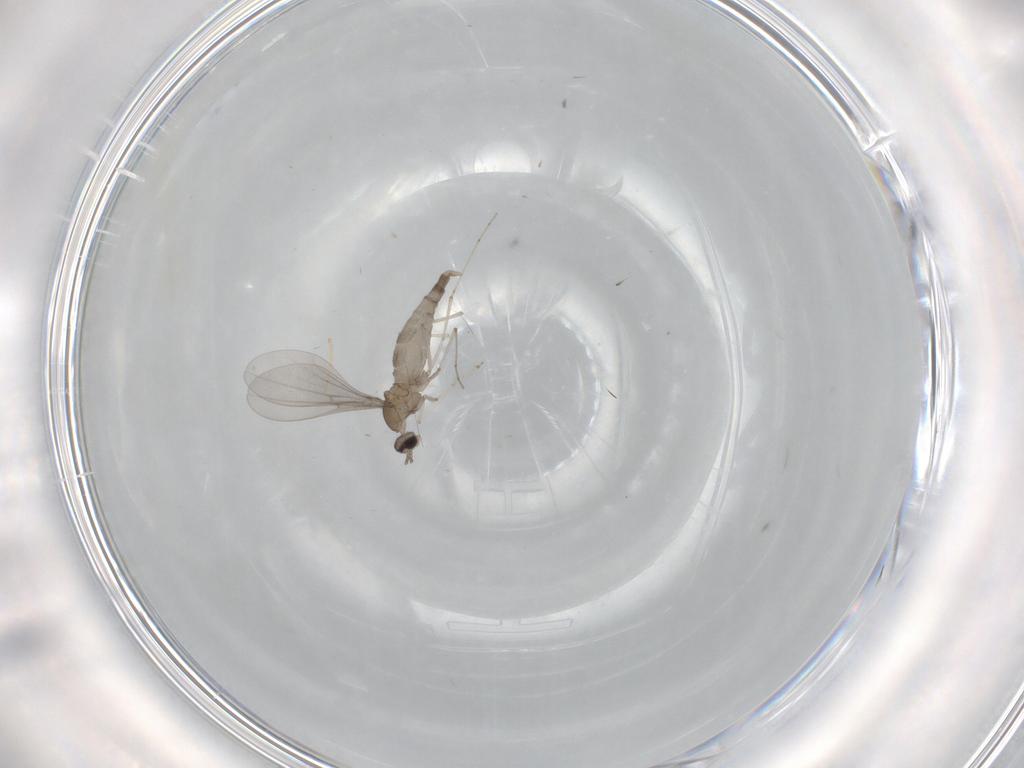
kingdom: Animalia
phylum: Arthropoda
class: Insecta
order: Diptera
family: Cecidomyiidae
